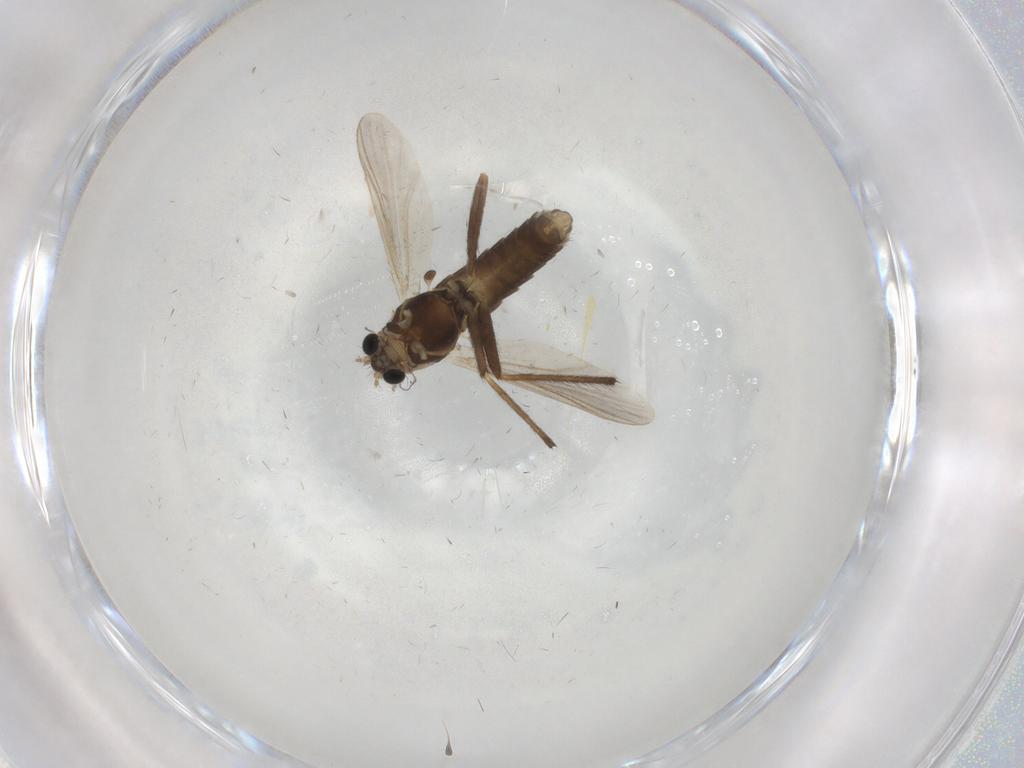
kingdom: Animalia
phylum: Arthropoda
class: Insecta
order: Diptera
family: Chironomidae
